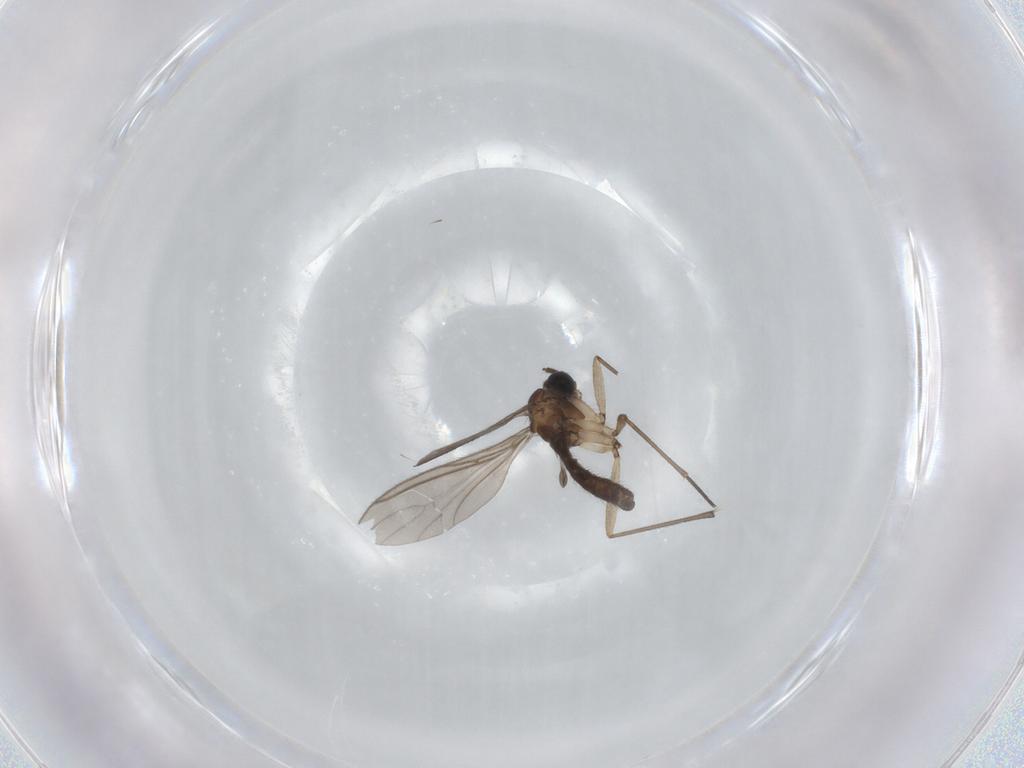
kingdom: Animalia
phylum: Arthropoda
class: Insecta
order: Diptera
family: Sciaridae
